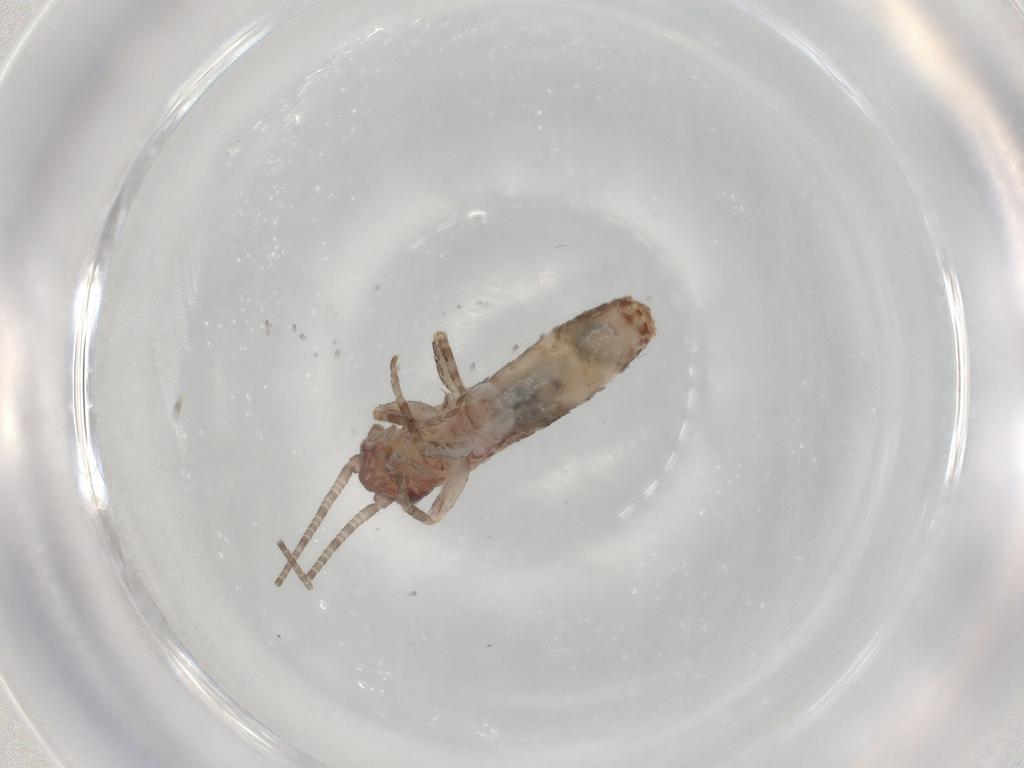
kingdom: Animalia
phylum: Arthropoda
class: Insecta
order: Orthoptera
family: Mogoplistidae
